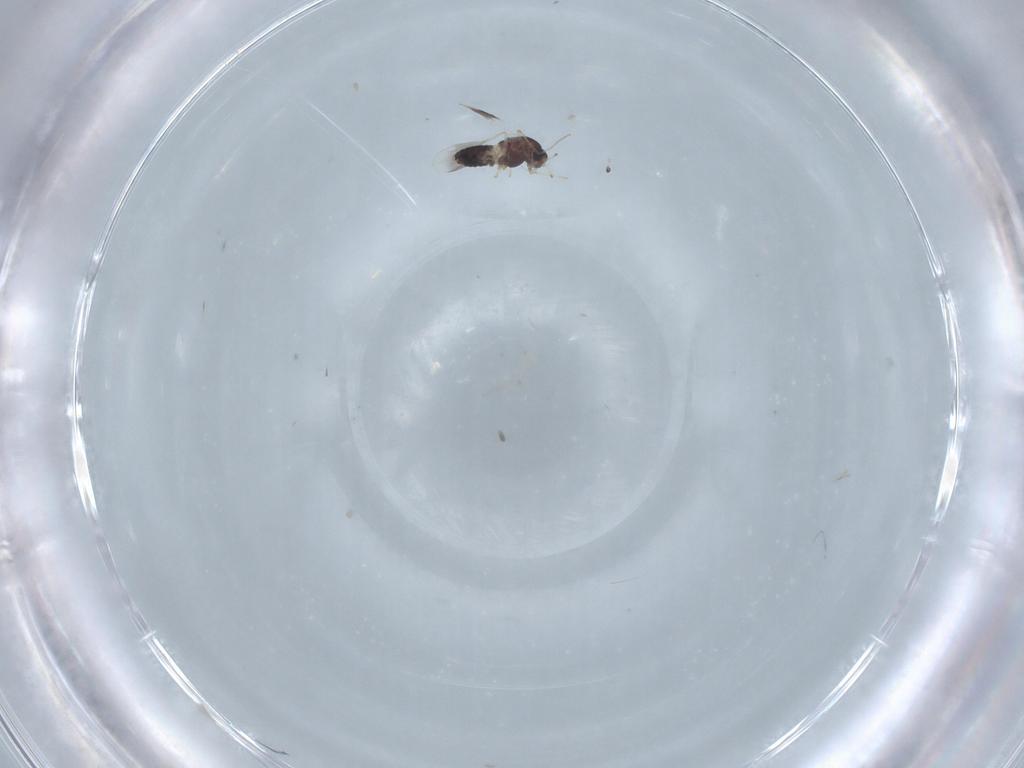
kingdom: Animalia
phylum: Arthropoda
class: Insecta
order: Diptera
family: Chironomidae
